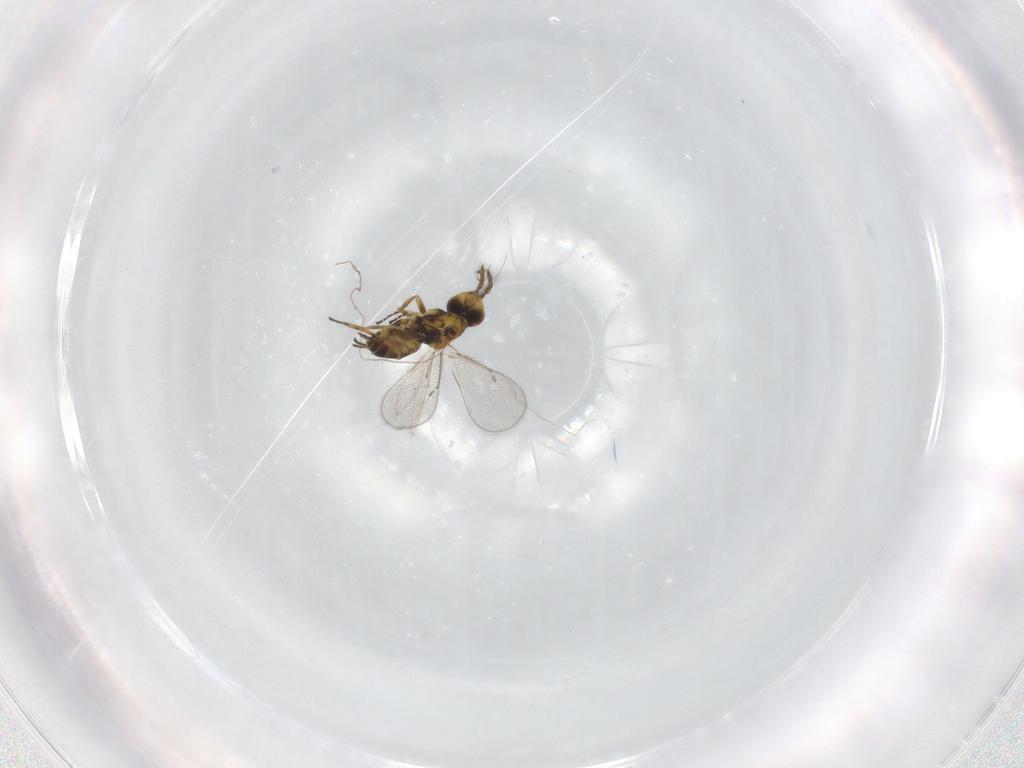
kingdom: Animalia
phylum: Arthropoda
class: Insecta
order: Hymenoptera
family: Eulophidae
